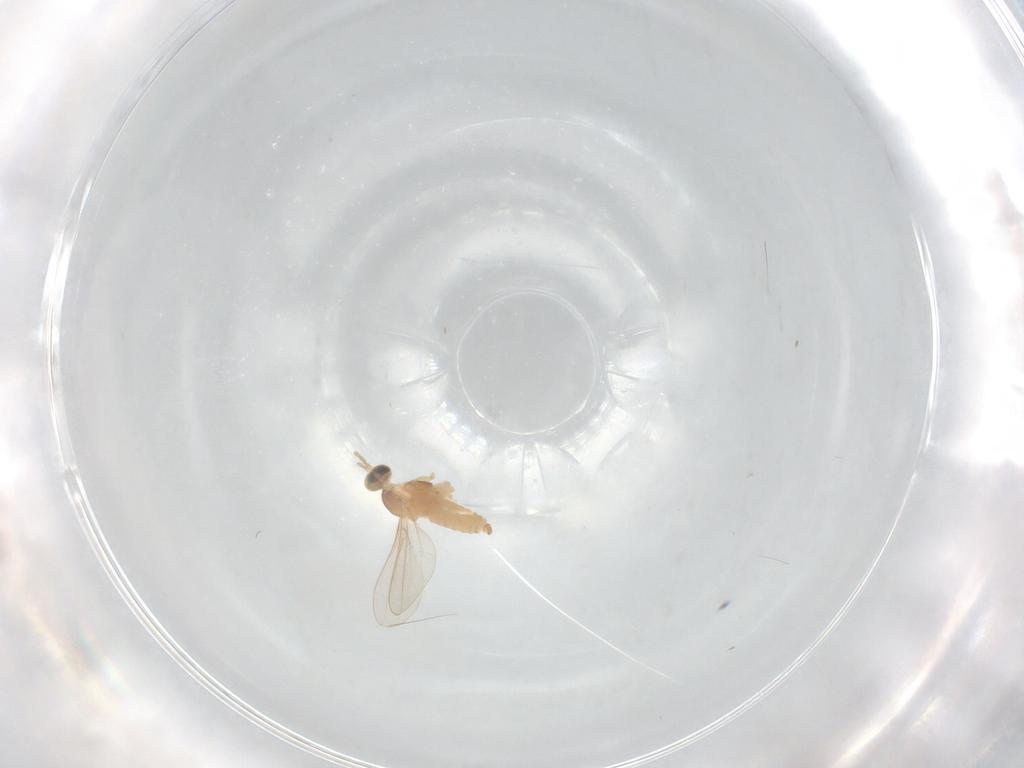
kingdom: Animalia
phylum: Arthropoda
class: Insecta
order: Diptera
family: Cecidomyiidae
